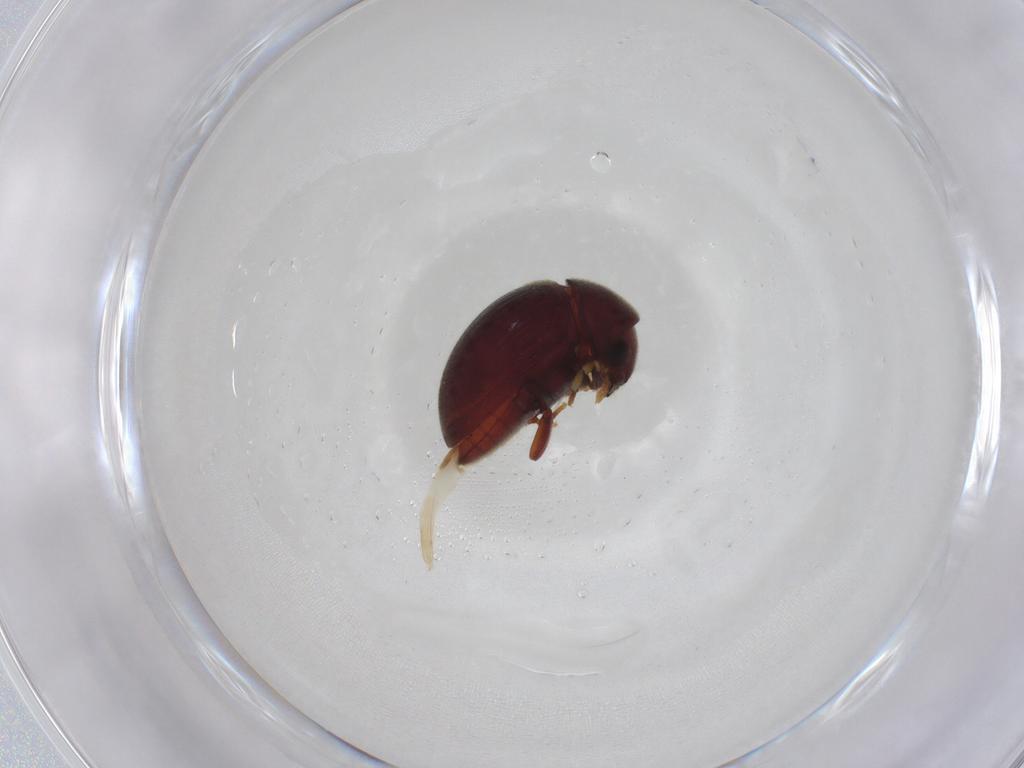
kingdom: Animalia
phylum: Arthropoda
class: Insecta
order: Coleoptera
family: Ptinidae
